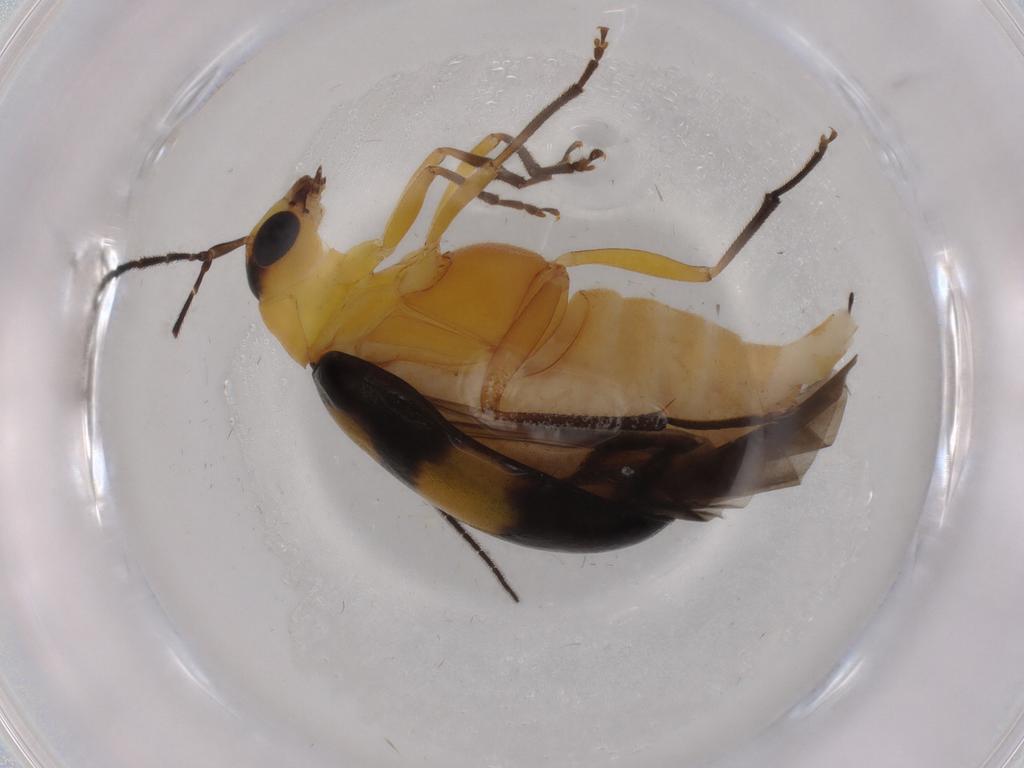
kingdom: Animalia
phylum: Arthropoda
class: Insecta
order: Coleoptera
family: Chrysomelidae
